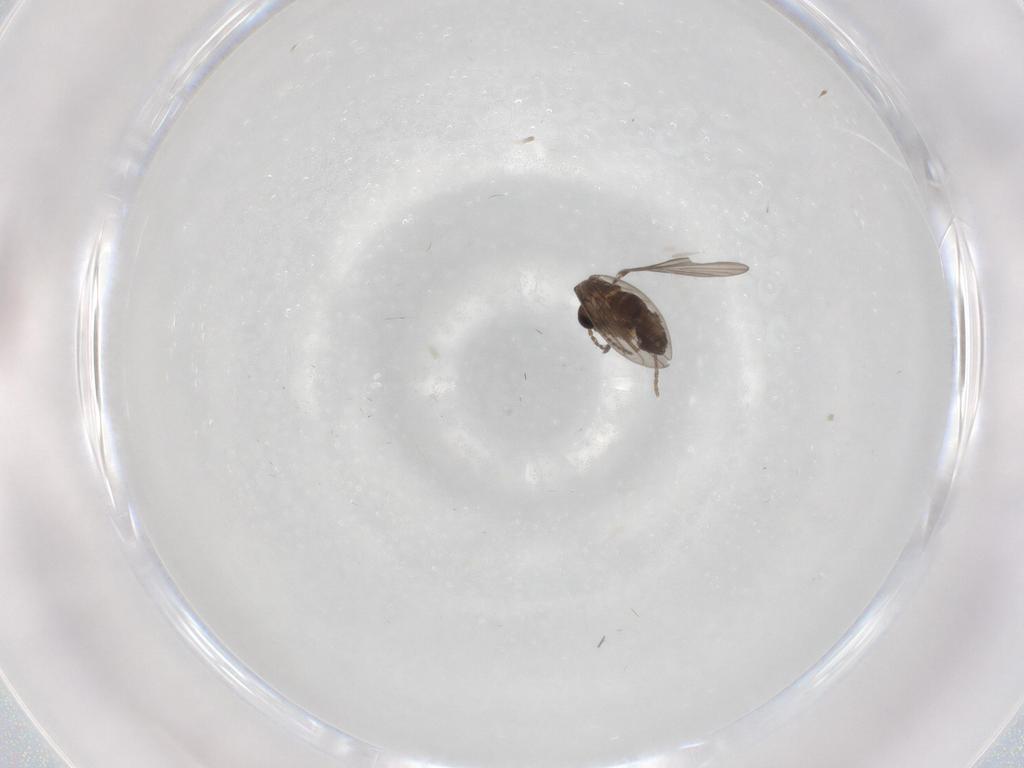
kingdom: Animalia
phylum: Arthropoda
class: Insecta
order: Diptera
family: Psychodidae
